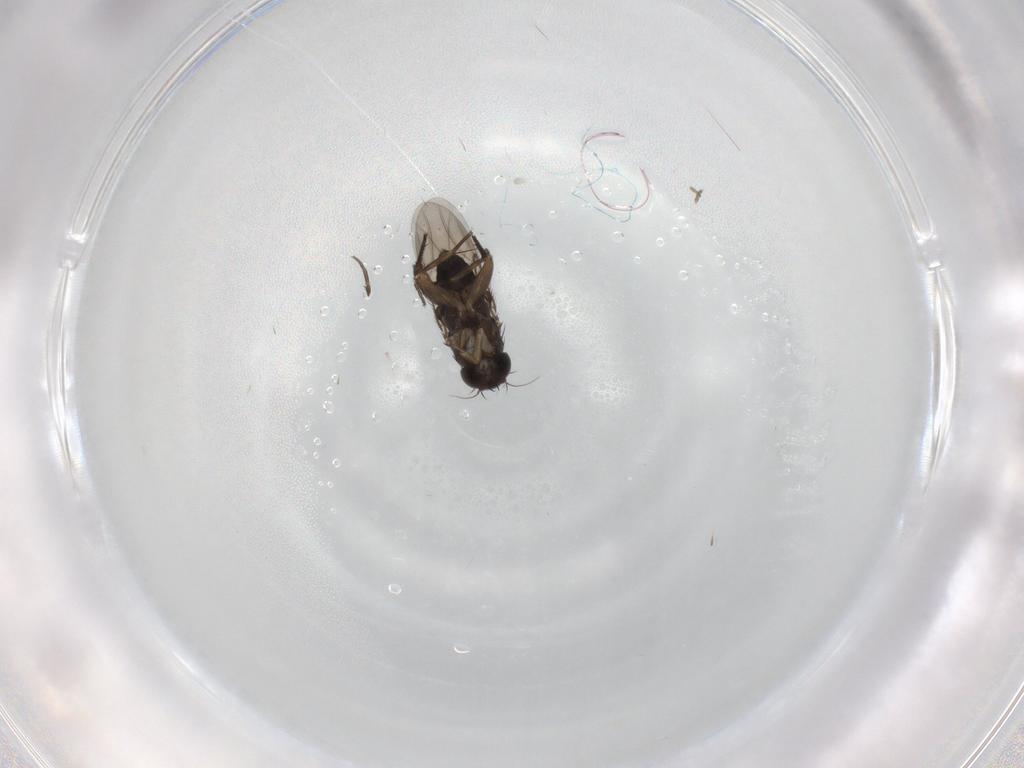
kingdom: Animalia
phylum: Arthropoda
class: Insecta
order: Diptera
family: Phoridae
